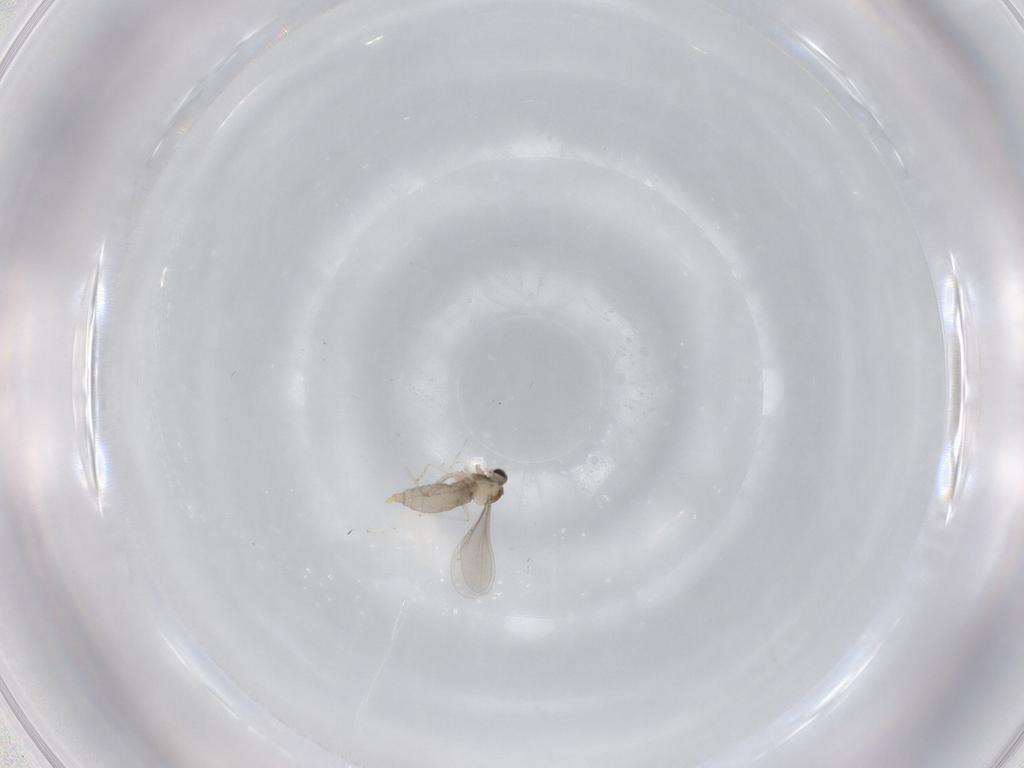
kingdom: Animalia
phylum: Arthropoda
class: Insecta
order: Diptera
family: Cecidomyiidae
